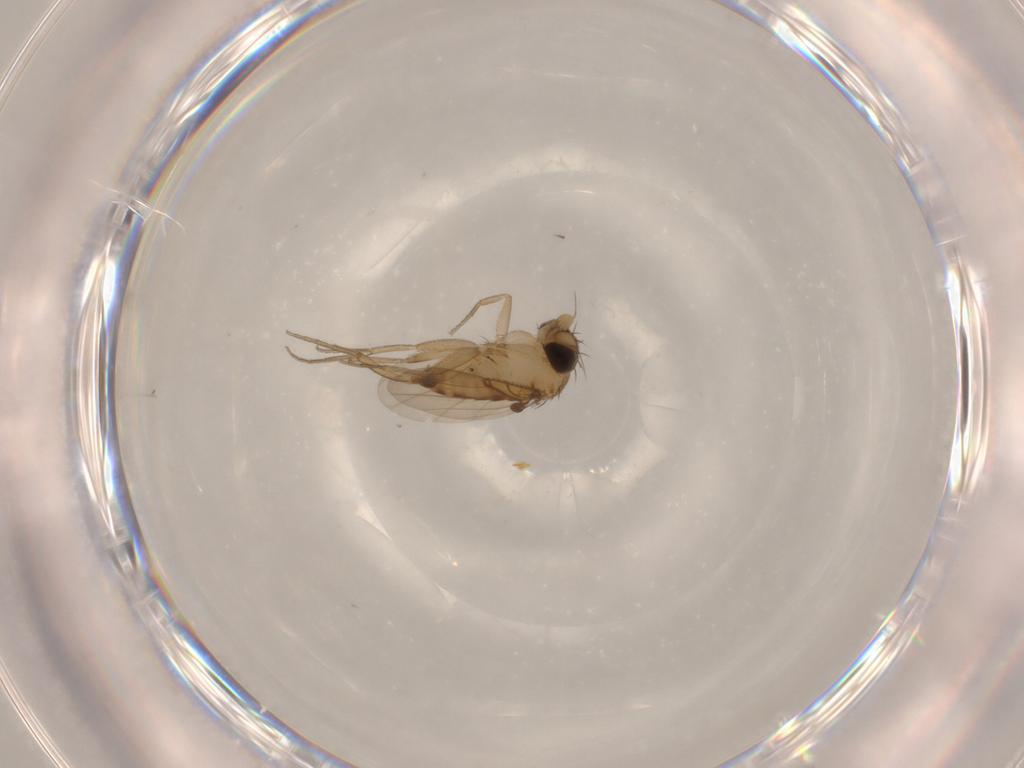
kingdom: Animalia
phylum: Arthropoda
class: Insecta
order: Diptera
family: Phoridae
